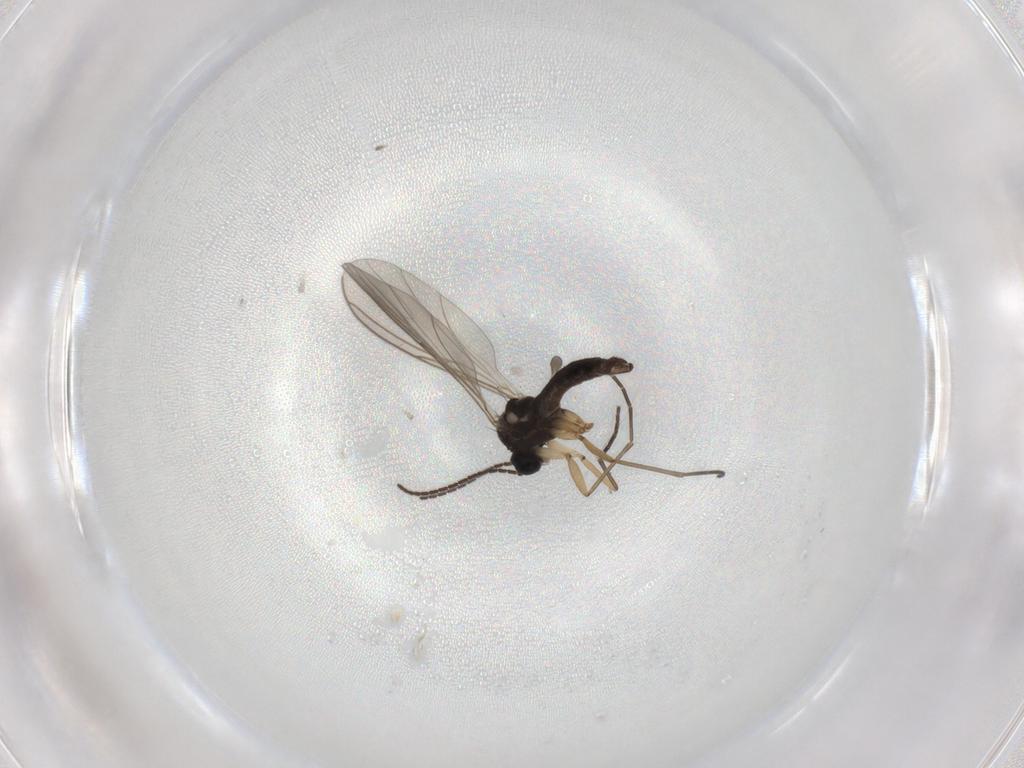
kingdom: Animalia
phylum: Arthropoda
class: Insecta
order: Diptera
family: Sciaridae
